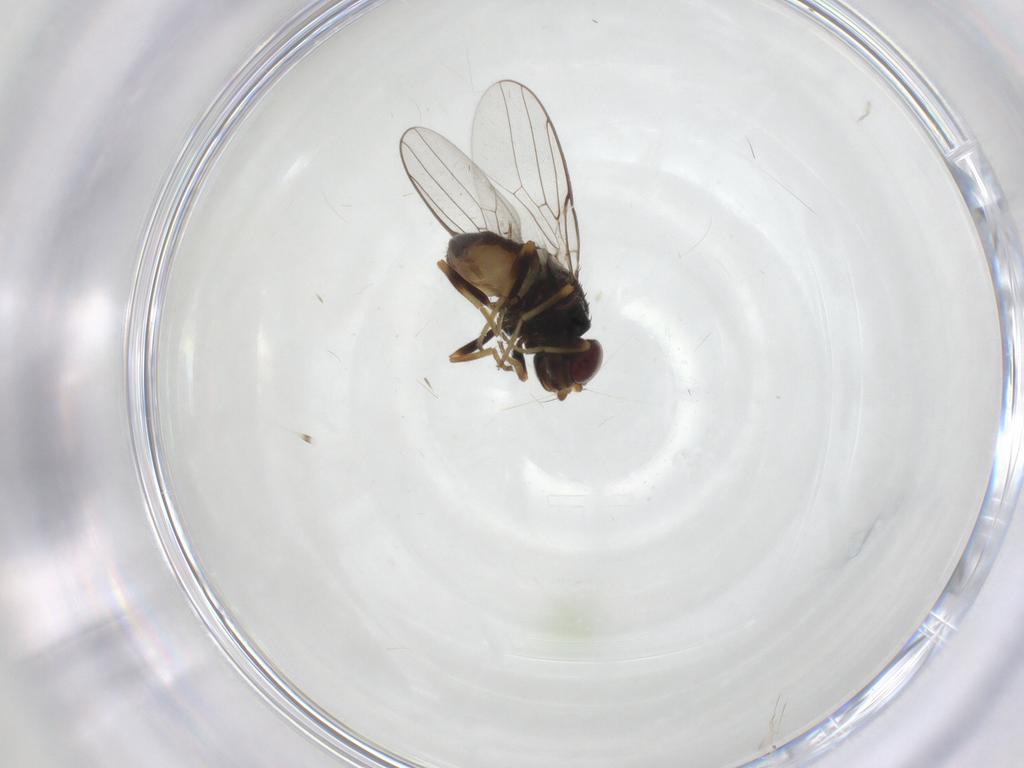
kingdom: Animalia
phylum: Arthropoda
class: Insecta
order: Diptera
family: Chloropidae
